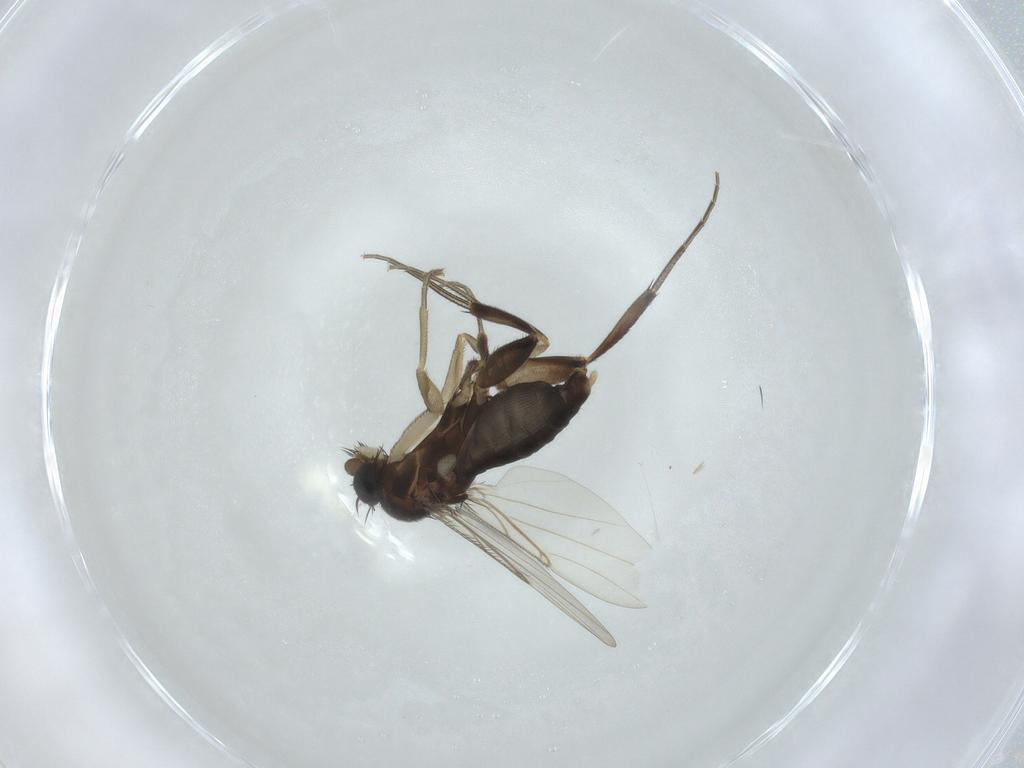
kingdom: Animalia
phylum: Arthropoda
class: Insecta
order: Diptera
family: Phoridae
